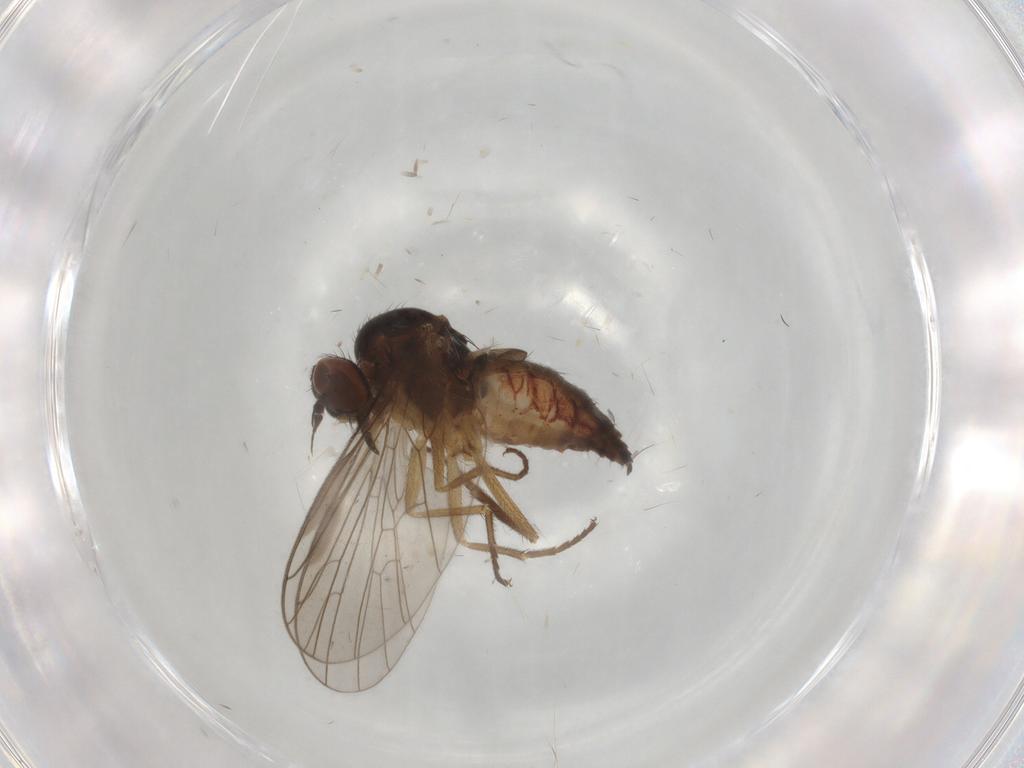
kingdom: Animalia
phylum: Arthropoda
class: Insecta
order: Diptera
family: Empididae
